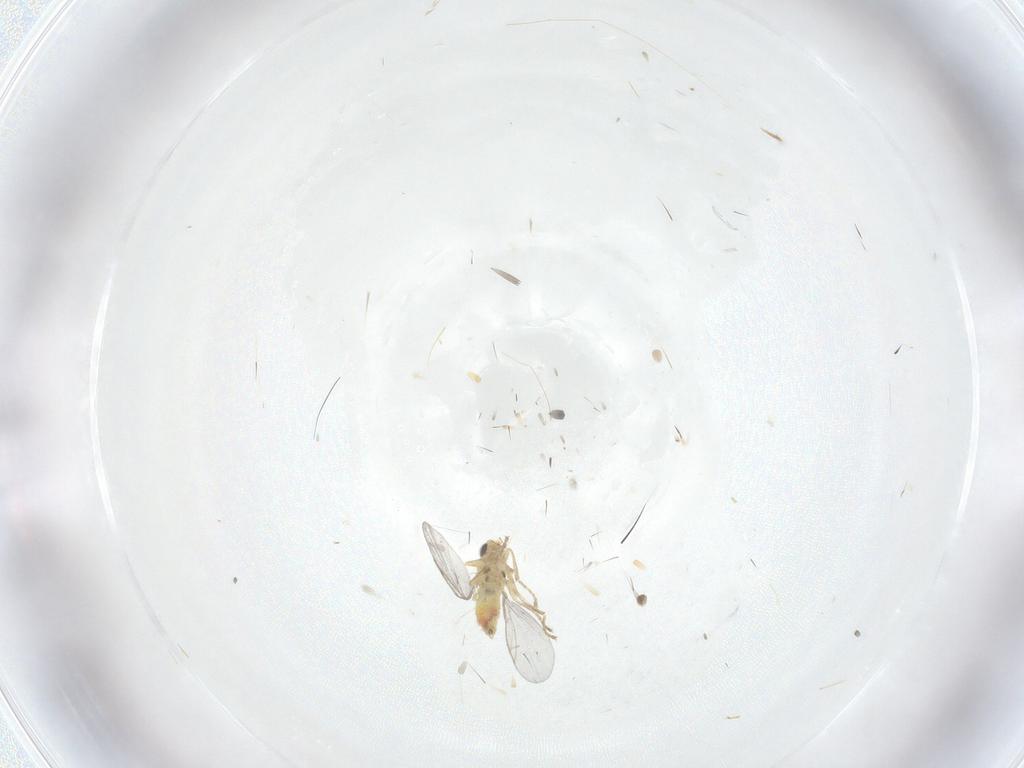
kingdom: Animalia
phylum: Arthropoda
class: Insecta
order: Diptera
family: Agromyzidae
